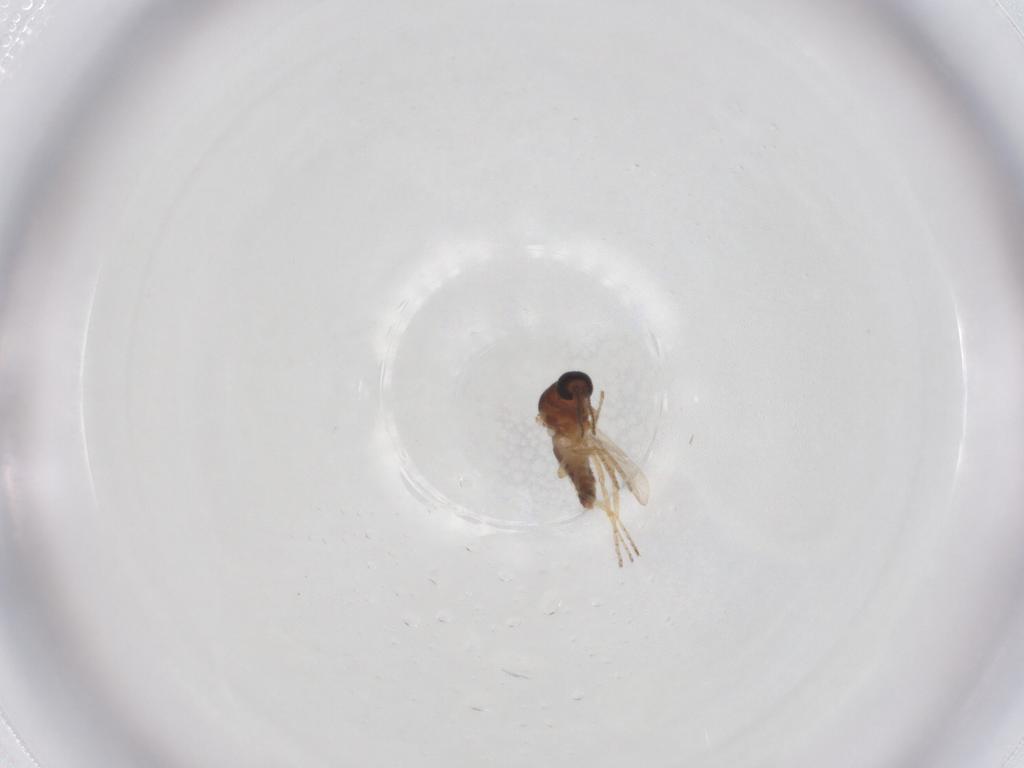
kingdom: Animalia
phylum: Arthropoda
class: Insecta
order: Diptera
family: Ceratopogonidae
